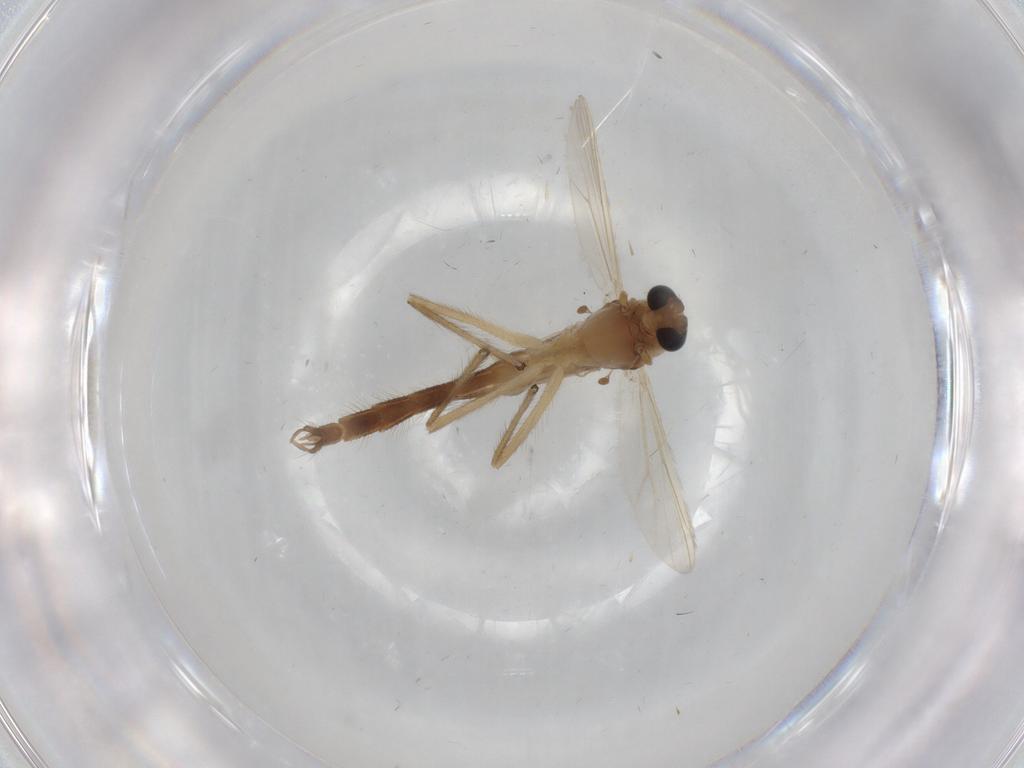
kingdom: Animalia
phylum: Arthropoda
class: Insecta
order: Diptera
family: Chironomidae
